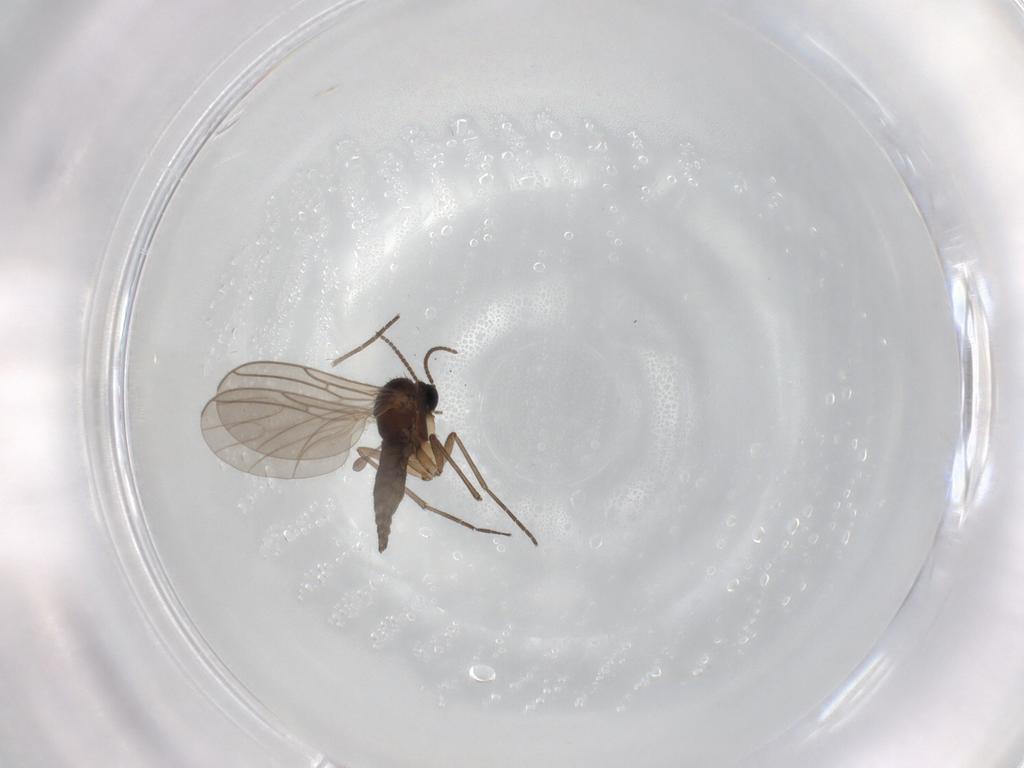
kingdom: Animalia
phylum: Arthropoda
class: Insecta
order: Diptera
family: Sciaridae
